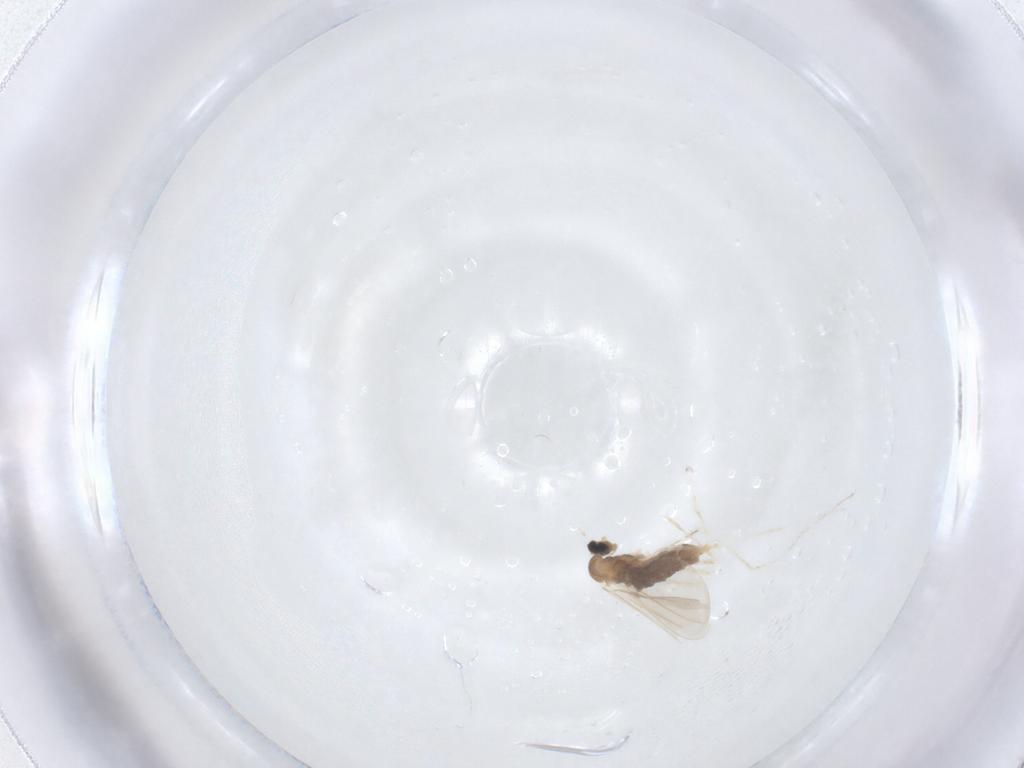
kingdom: Animalia
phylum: Arthropoda
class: Insecta
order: Diptera
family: Cecidomyiidae
